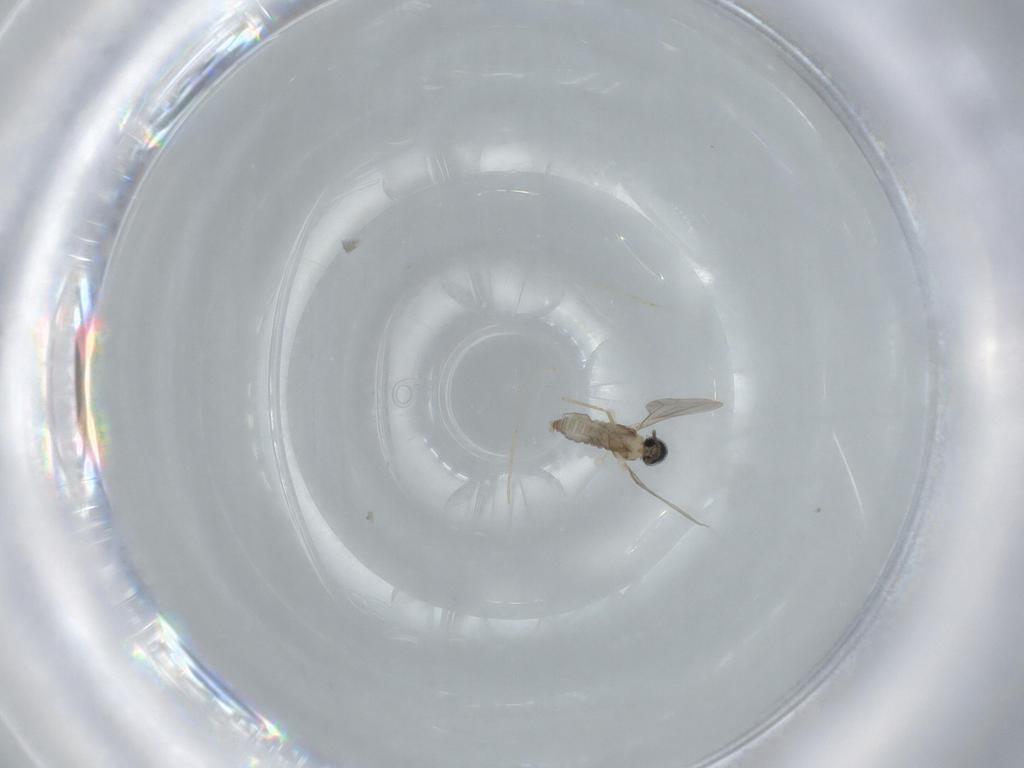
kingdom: Animalia
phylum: Arthropoda
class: Insecta
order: Diptera
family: Cecidomyiidae
